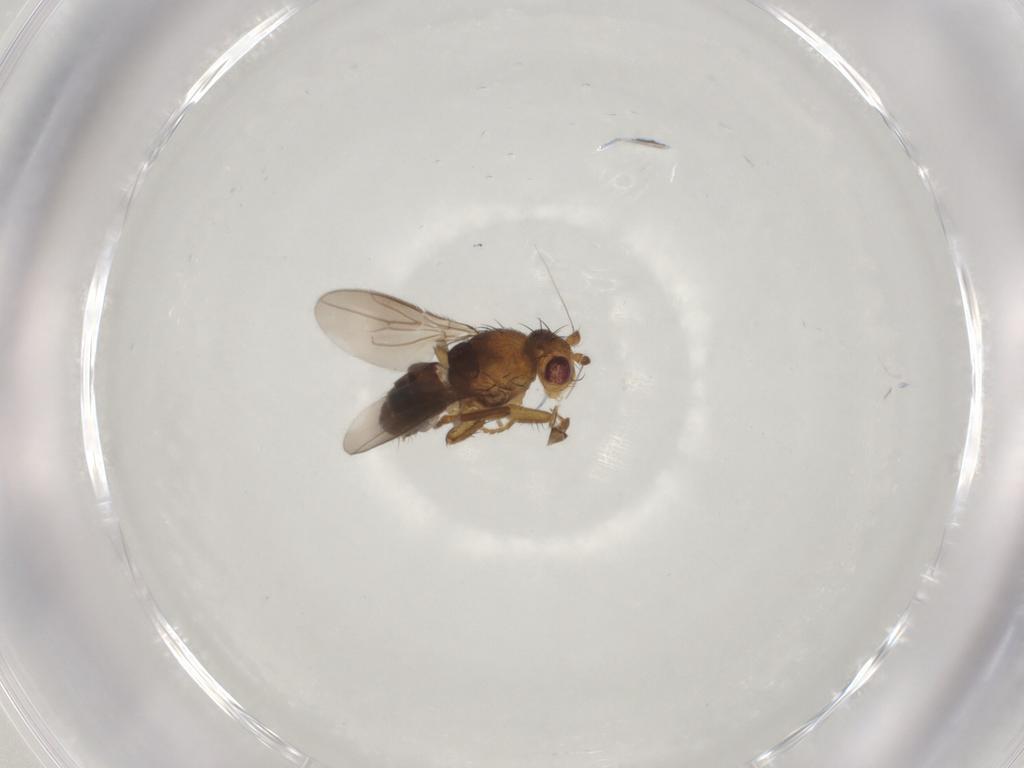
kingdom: Animalia
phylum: Arthropoda
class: Insecta
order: Diptera
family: Sphaeroceridae
